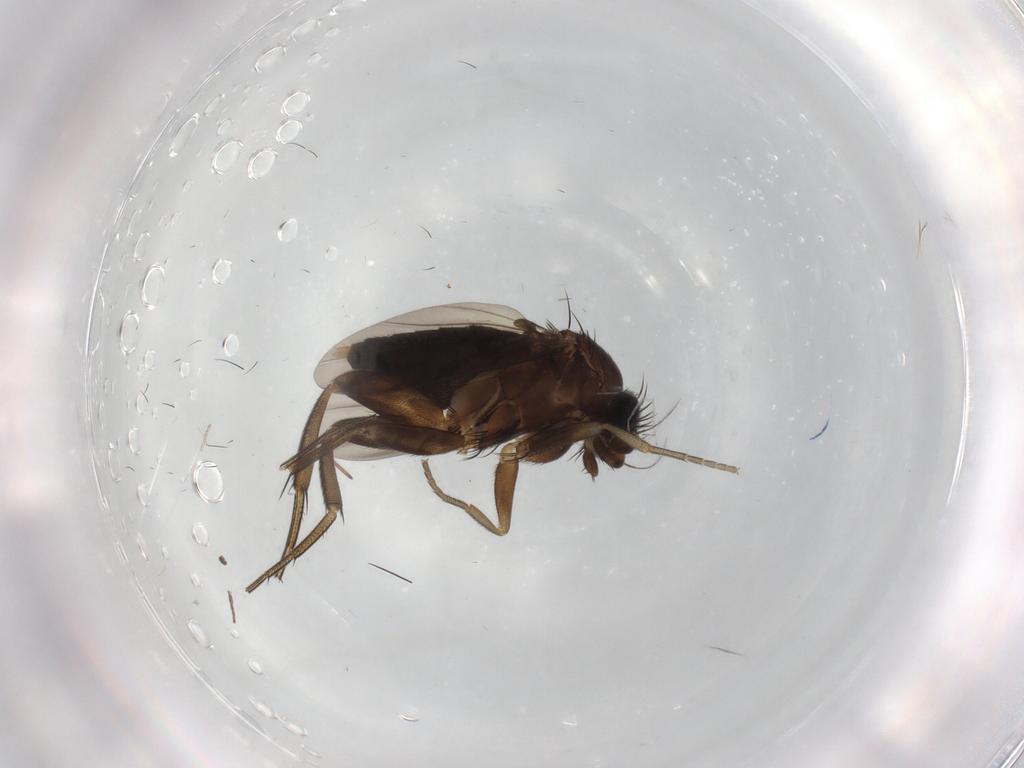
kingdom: Animalia
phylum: Arthropoda
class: Insecta
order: Diptera
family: Phoridae
